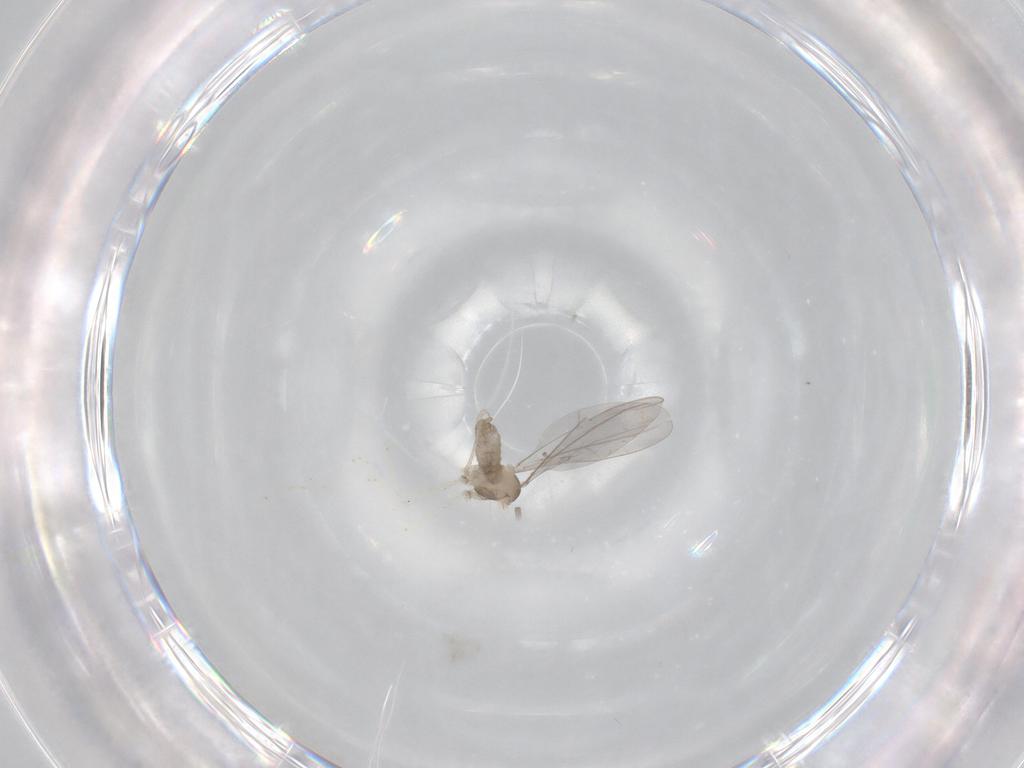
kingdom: Animalia
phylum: Arthropoda
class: Insecta
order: Diptera
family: Cecidomyiidae
